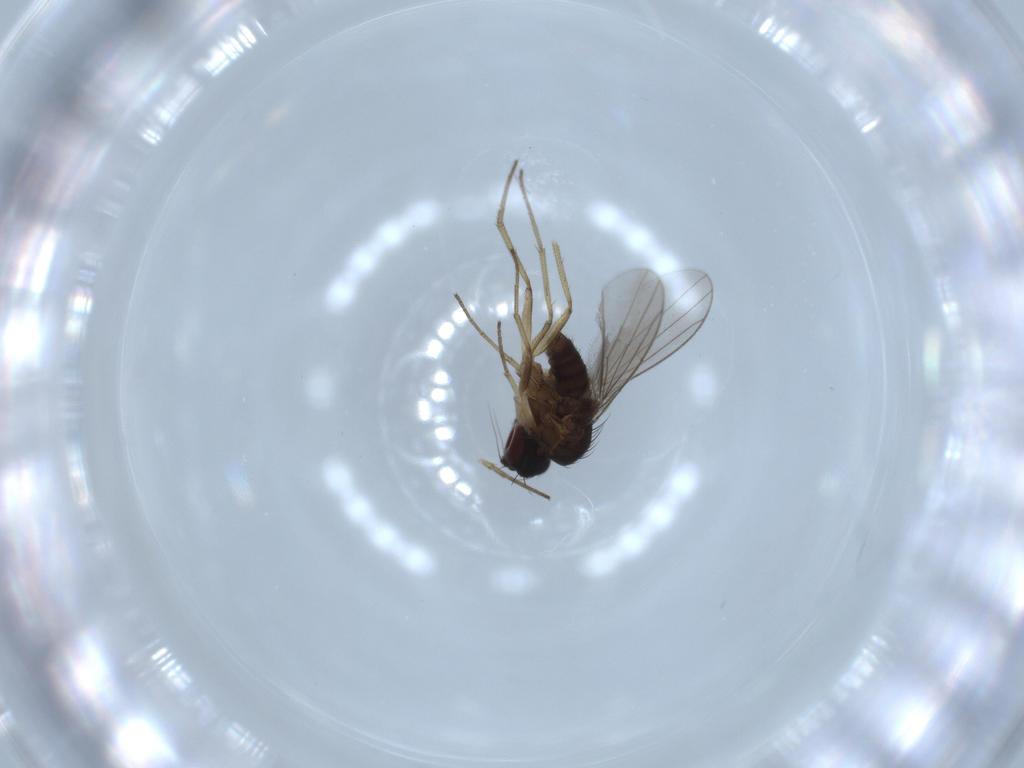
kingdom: Animalia
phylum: Arthropoda
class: Insecta
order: Diptera
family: Dolichopodidae
